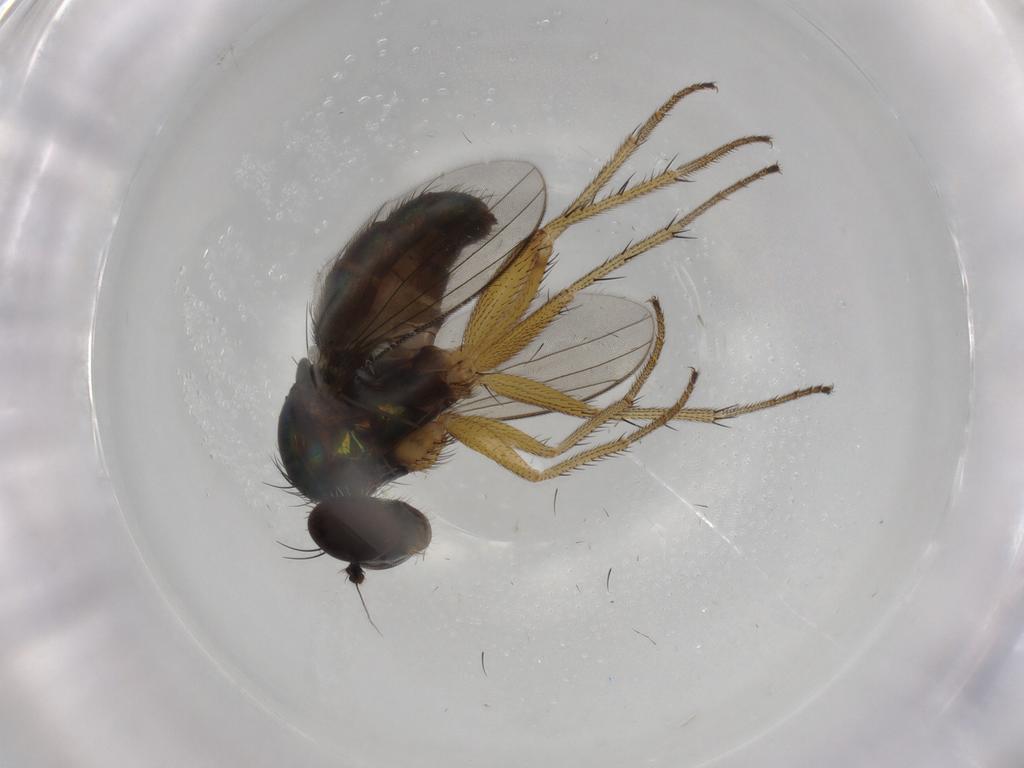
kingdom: Animalia
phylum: Arthropoda
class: Insecta
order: Diptera
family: Dolichopodidae
